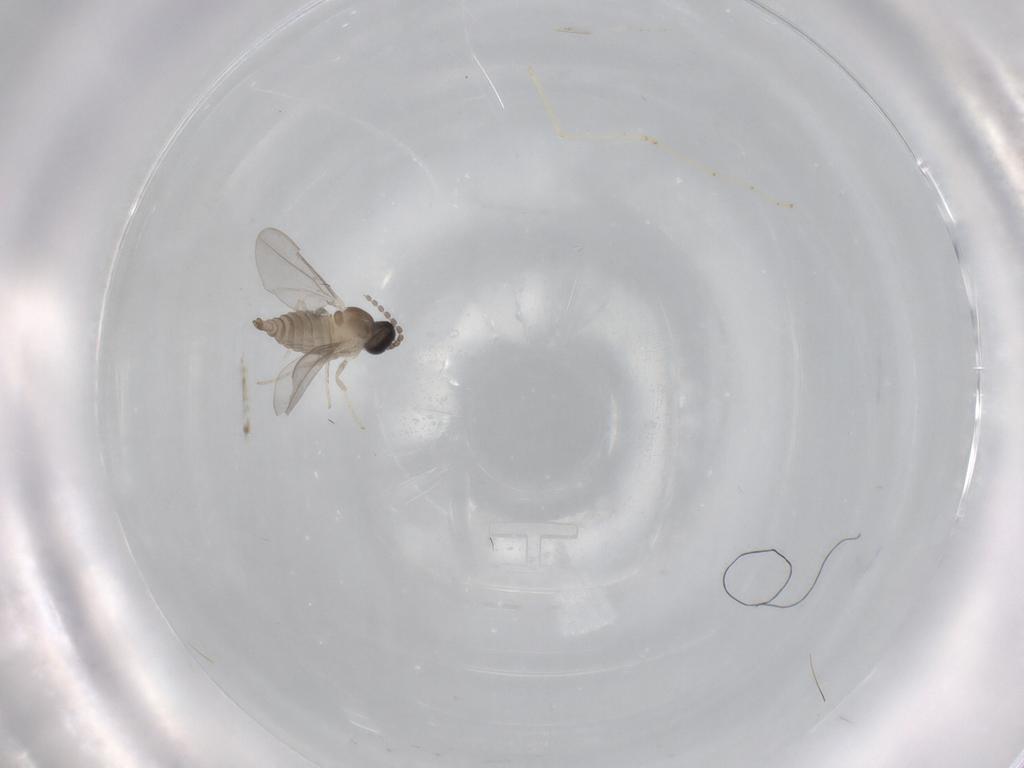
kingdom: Animalia
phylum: Arthropoda
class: Insecta
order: Diptera
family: Cecidomyiidae
